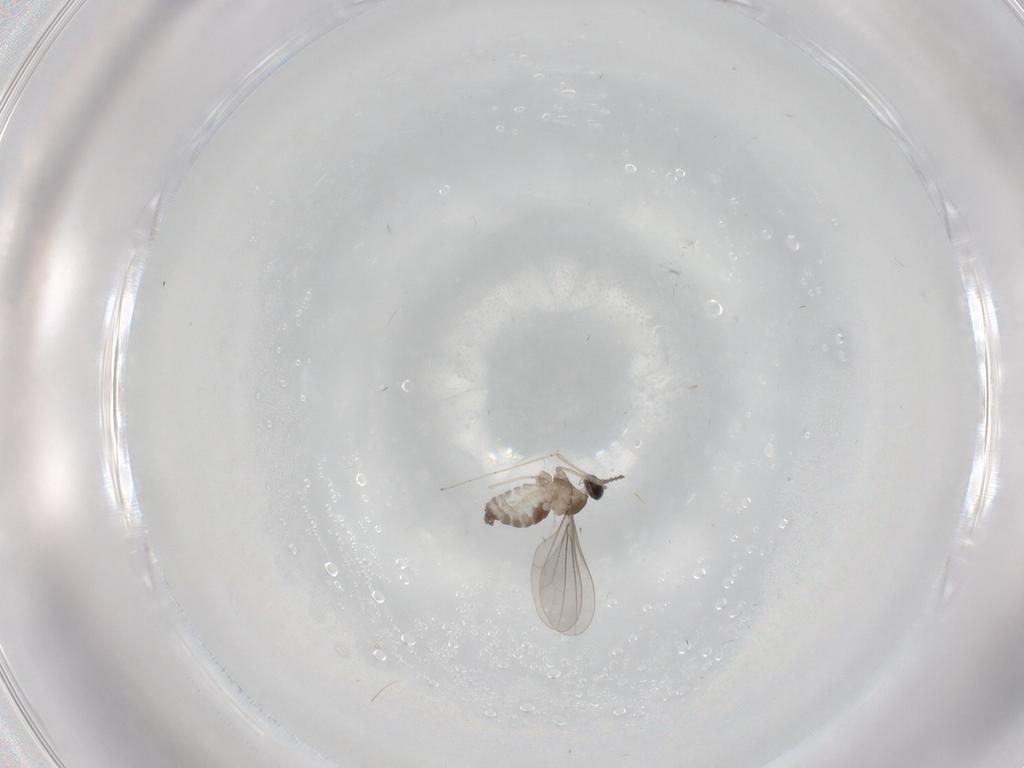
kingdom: Animalia
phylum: Arthropoda
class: Insecta
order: Diptera
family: Cecidomyiidae
